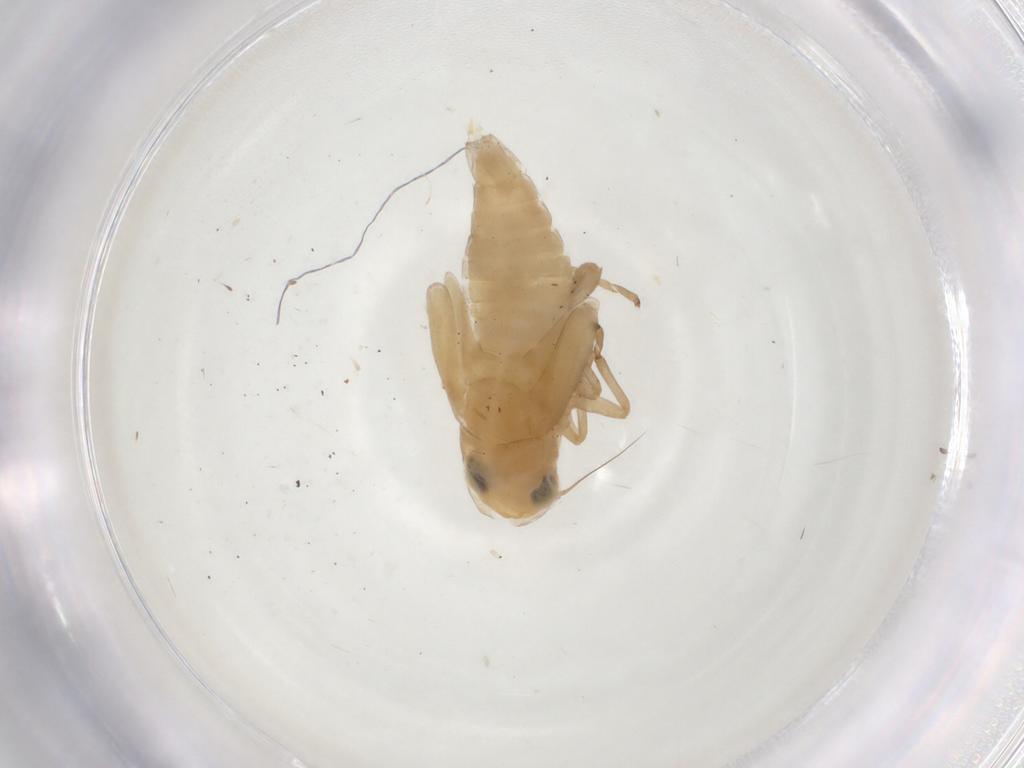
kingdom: Animalia
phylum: Arthropoda
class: Insecta
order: Hemiptera
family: Cicadellidae
